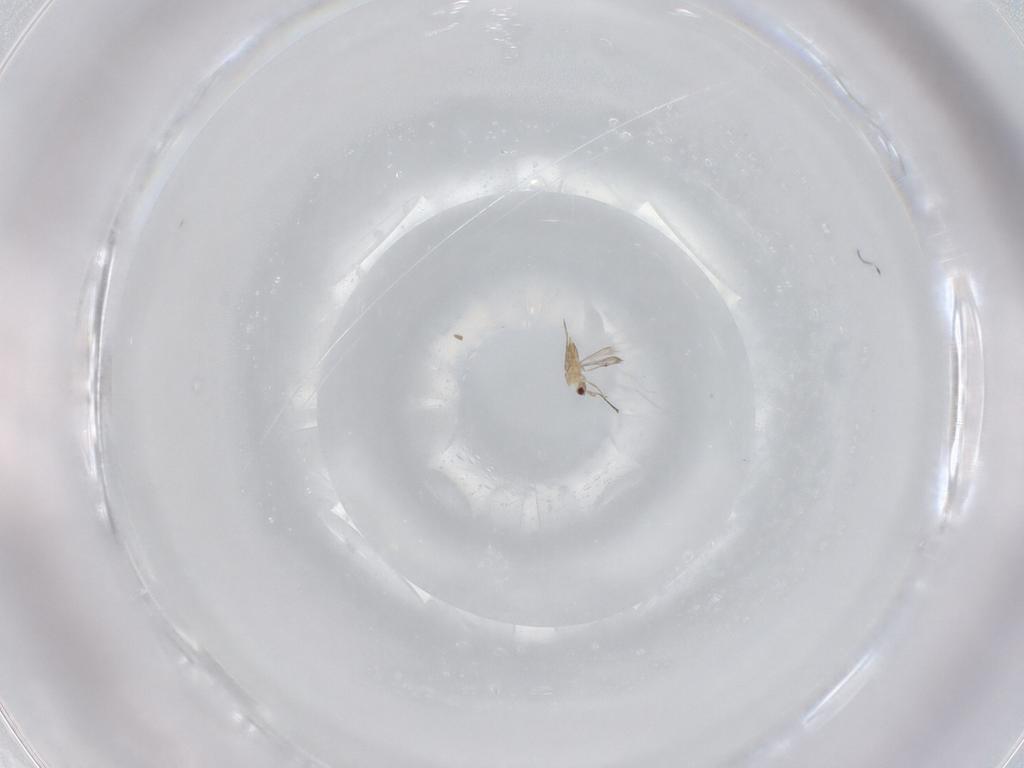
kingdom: Animalia
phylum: Arthropoda
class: Insecta
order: Hymenoptera
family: Mymaridae
